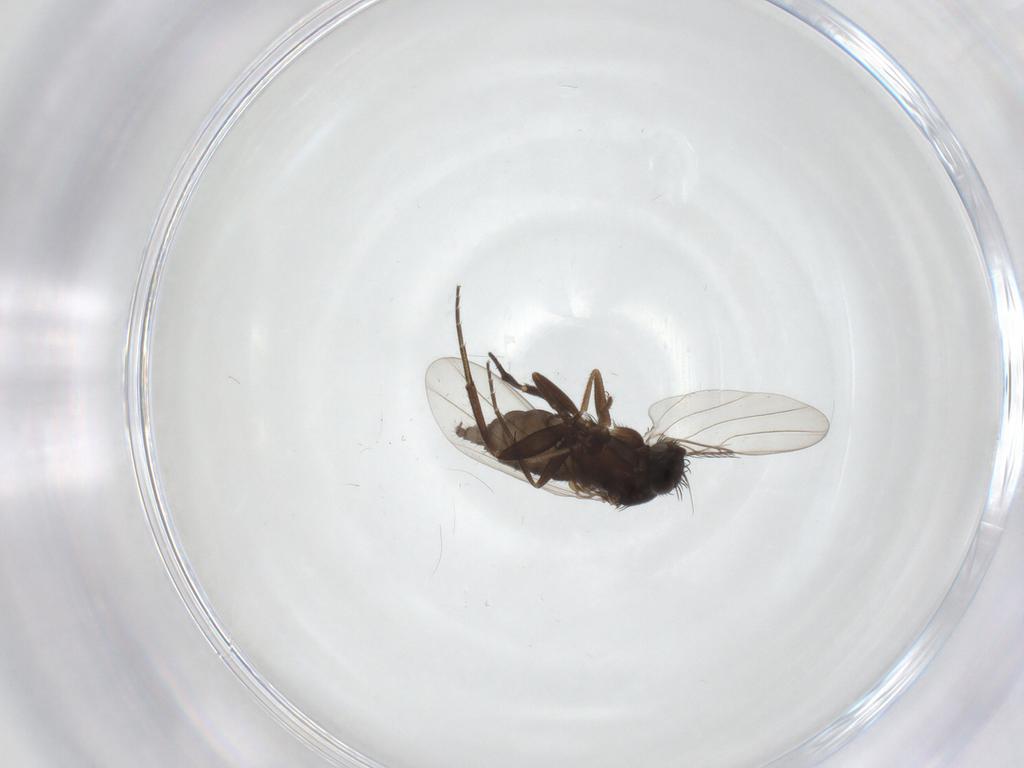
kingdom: Animalia
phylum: Arthropoda
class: Insecta
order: Diptera
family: Phoridae
